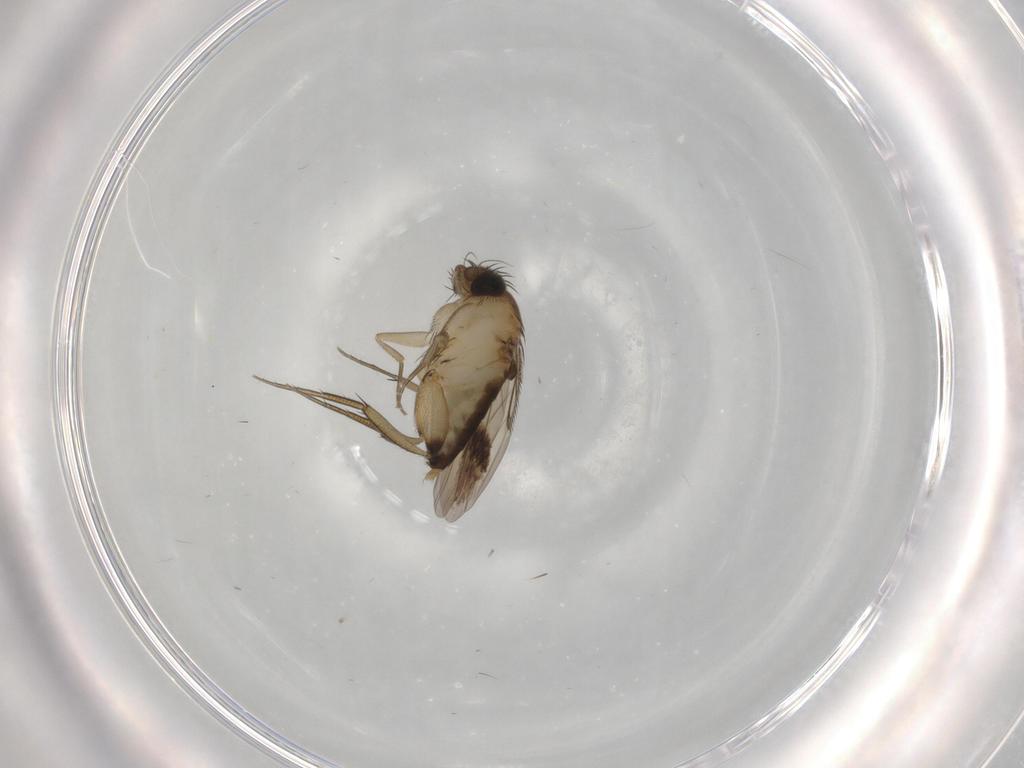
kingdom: Animalia
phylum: Arthropoda
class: Insecta
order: Diptera
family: Phoridae
